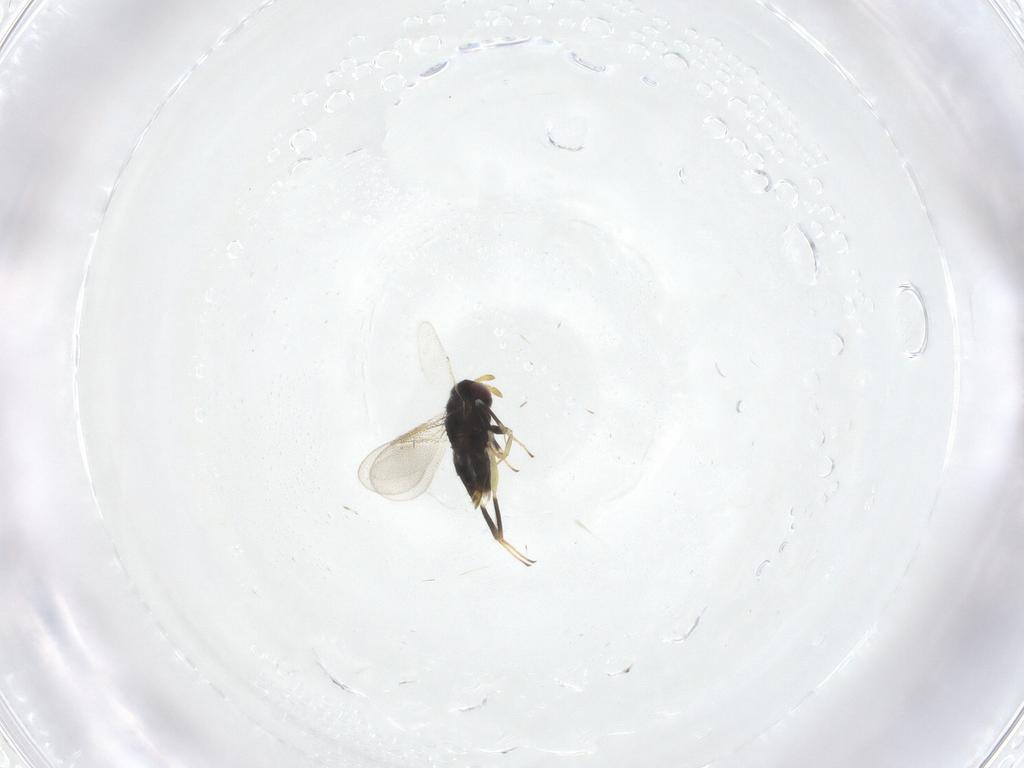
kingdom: Animalia
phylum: Arthropoda
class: Insecta
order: Hymenoptera
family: Aphelinidae
